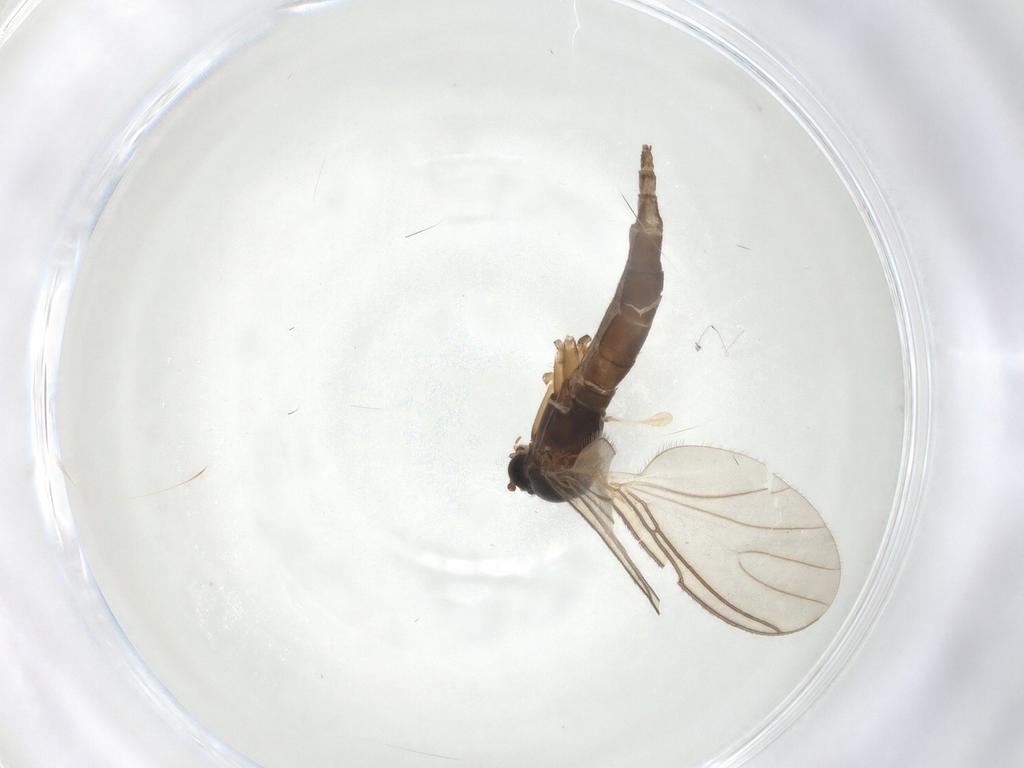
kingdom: Animalia
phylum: Arthropoda
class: Insecta
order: Diptera
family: Sciaridae
